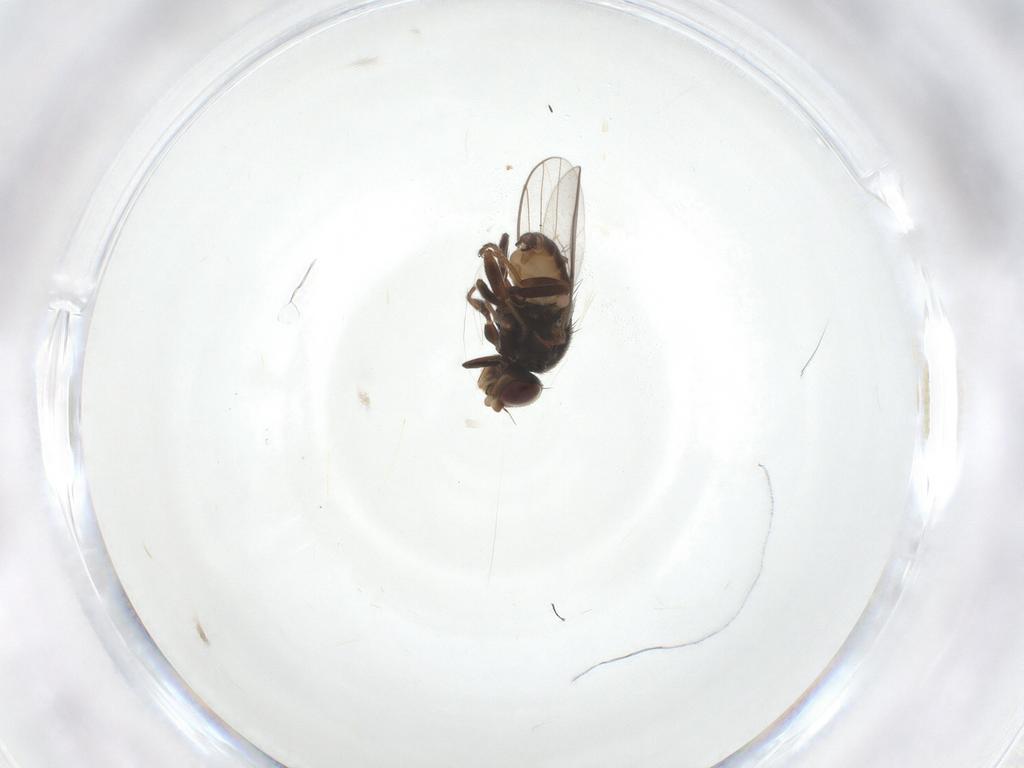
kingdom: Animalia
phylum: Arthropoda
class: Insecta
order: Diptera
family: Chloropidae
